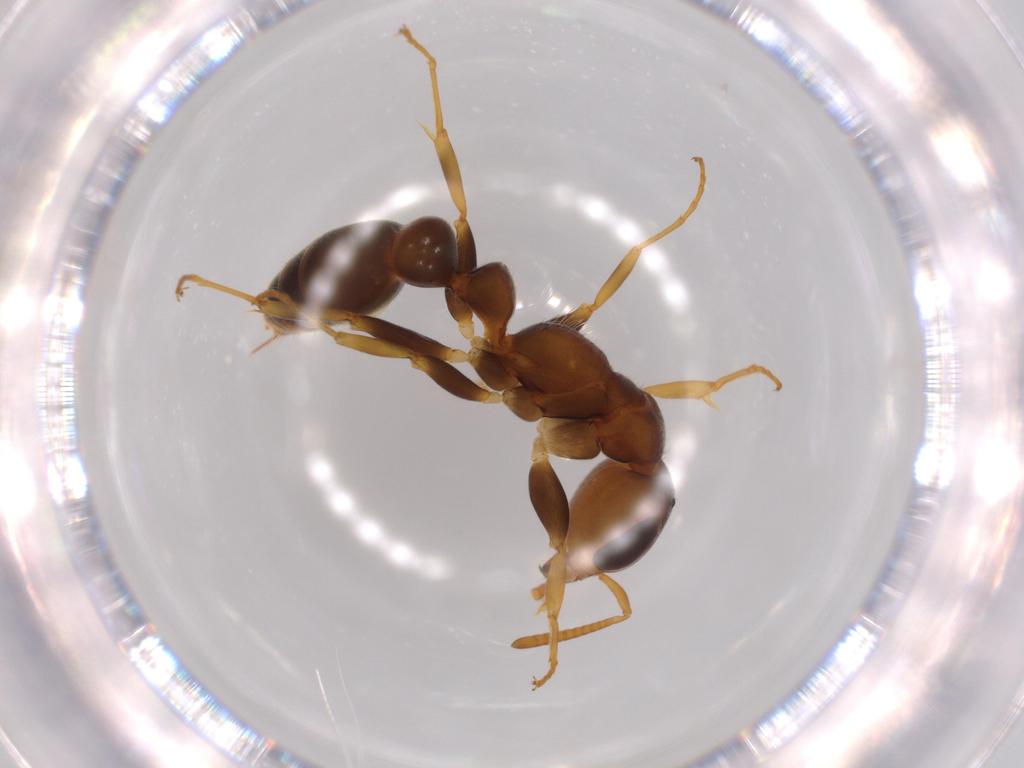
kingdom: Animalia
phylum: Arthropoda
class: Insecta
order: Hymenoptera
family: Formicidae
